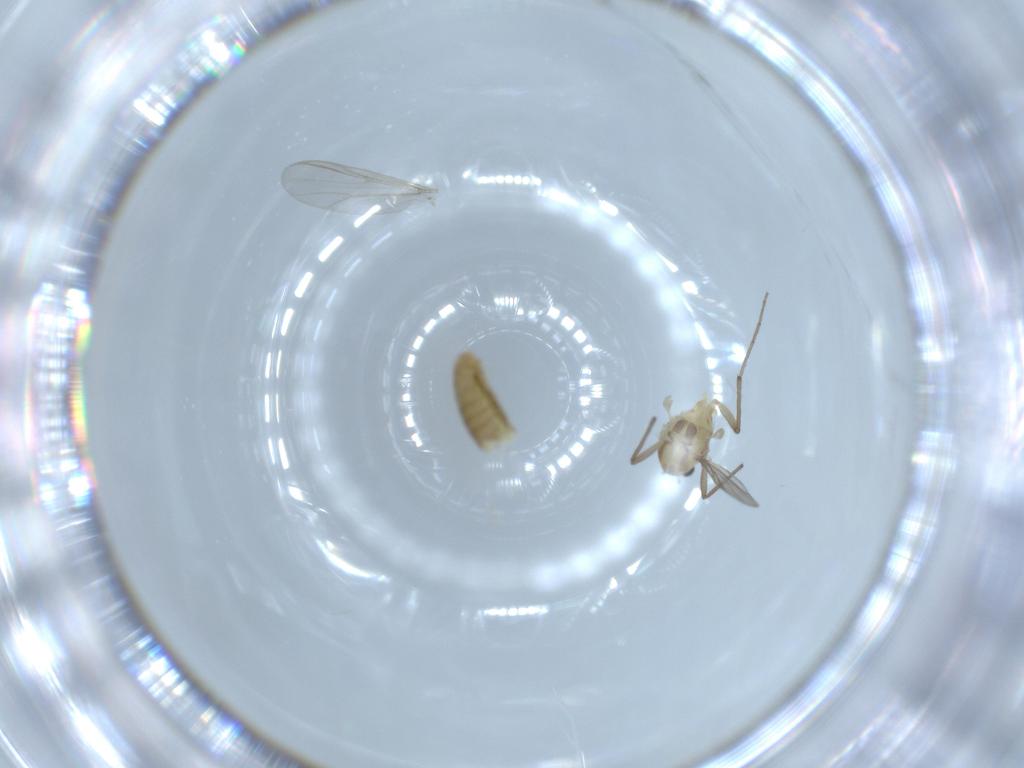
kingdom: Animalia
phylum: Arthropoda
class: Insecta
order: Diptera
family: Chironomidae
